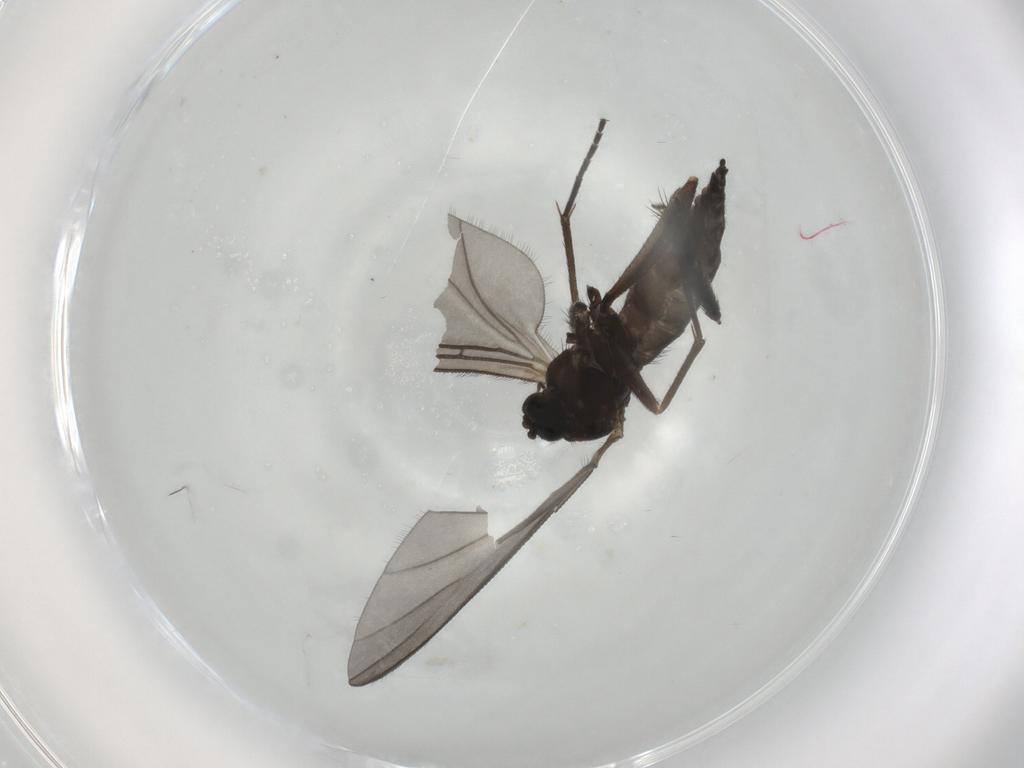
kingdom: Animalia
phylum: Arthropoda
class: Insecta
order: Diptera
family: Sciaridae
